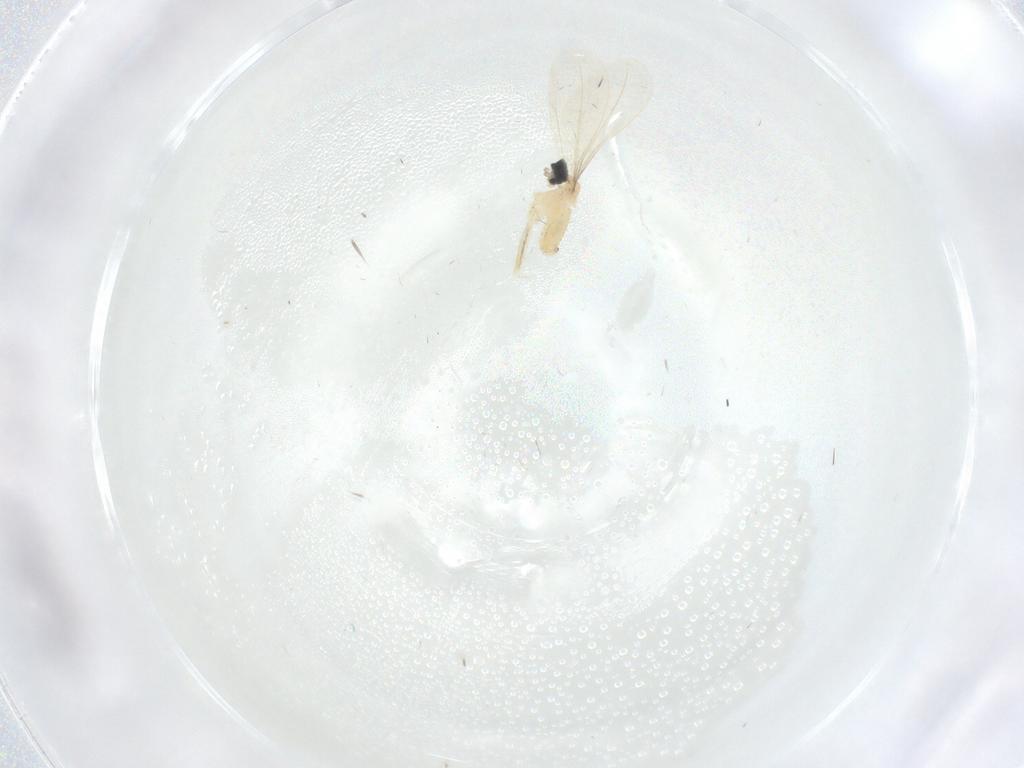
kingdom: Animalia
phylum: Arthropoda
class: Insecta
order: Diptera
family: Cecidomyiidae
